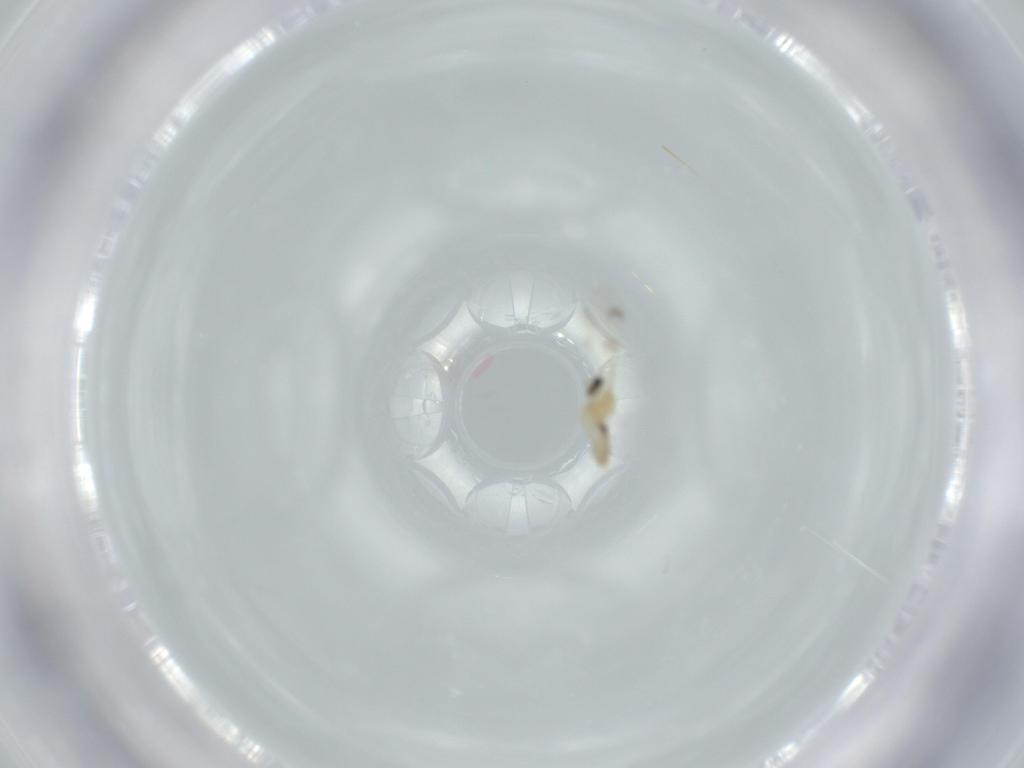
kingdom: Animalia
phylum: Arthropoda
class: Insecta
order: Diptera
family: Cecidomyiidae
